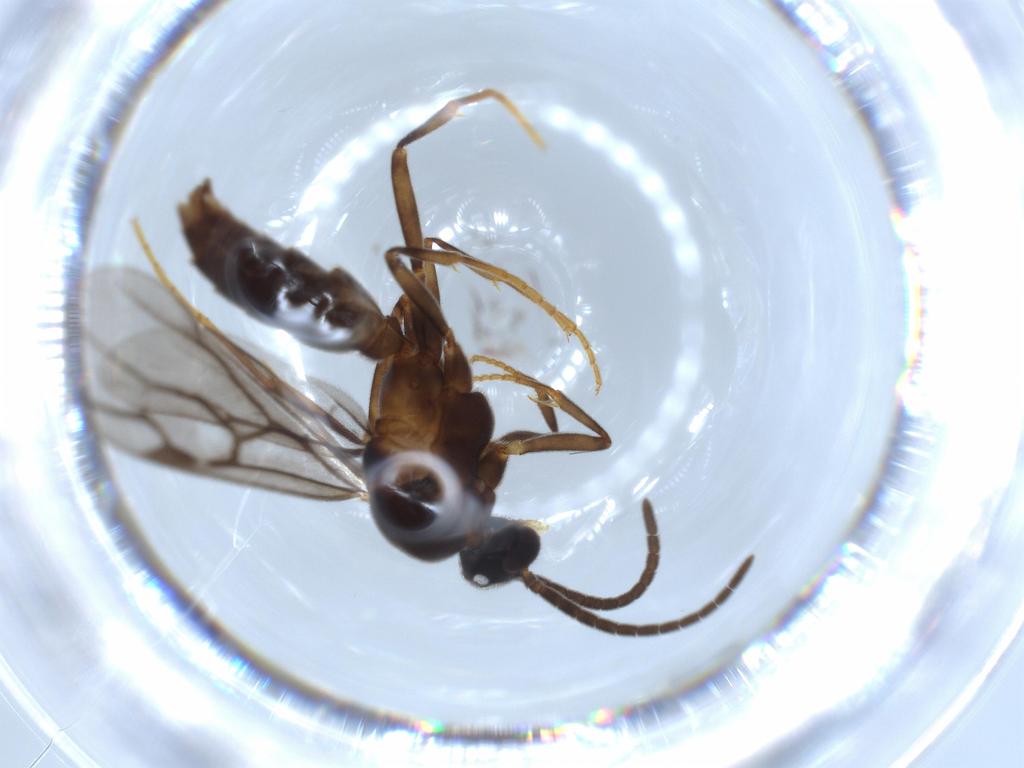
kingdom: Animalia
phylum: Arthropoda
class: Insecta
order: Hymenoptera
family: Formicidae
